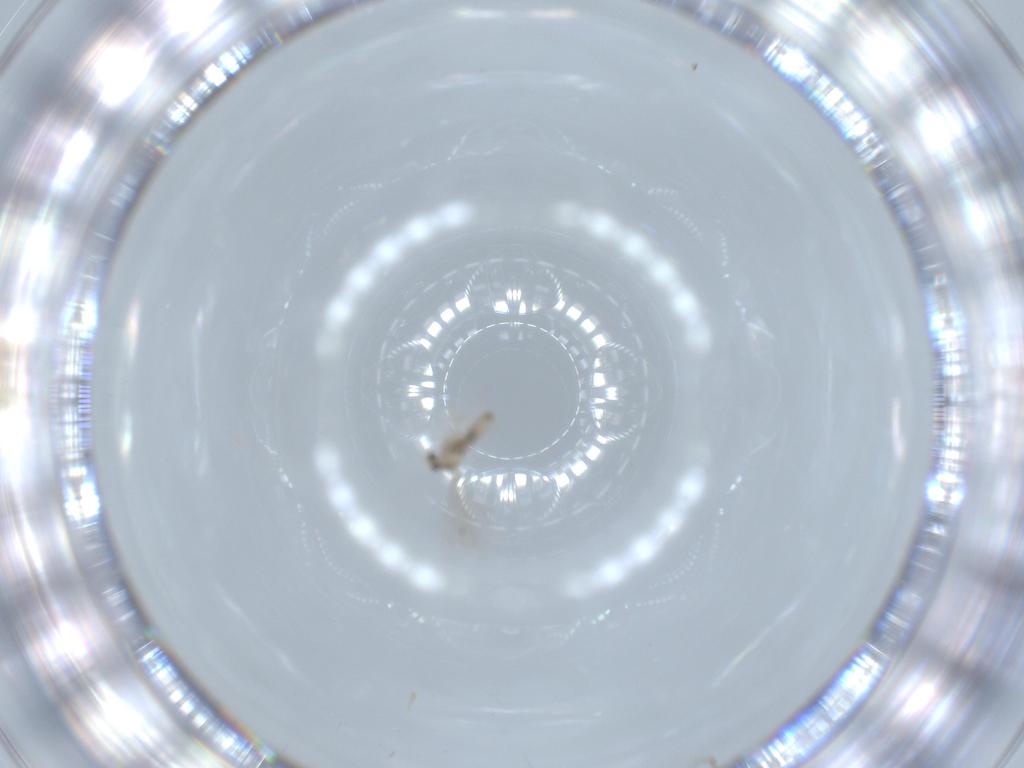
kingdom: Animalia
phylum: Arthropoda
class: Insecta
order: Diptera
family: Cecidomyiidae
